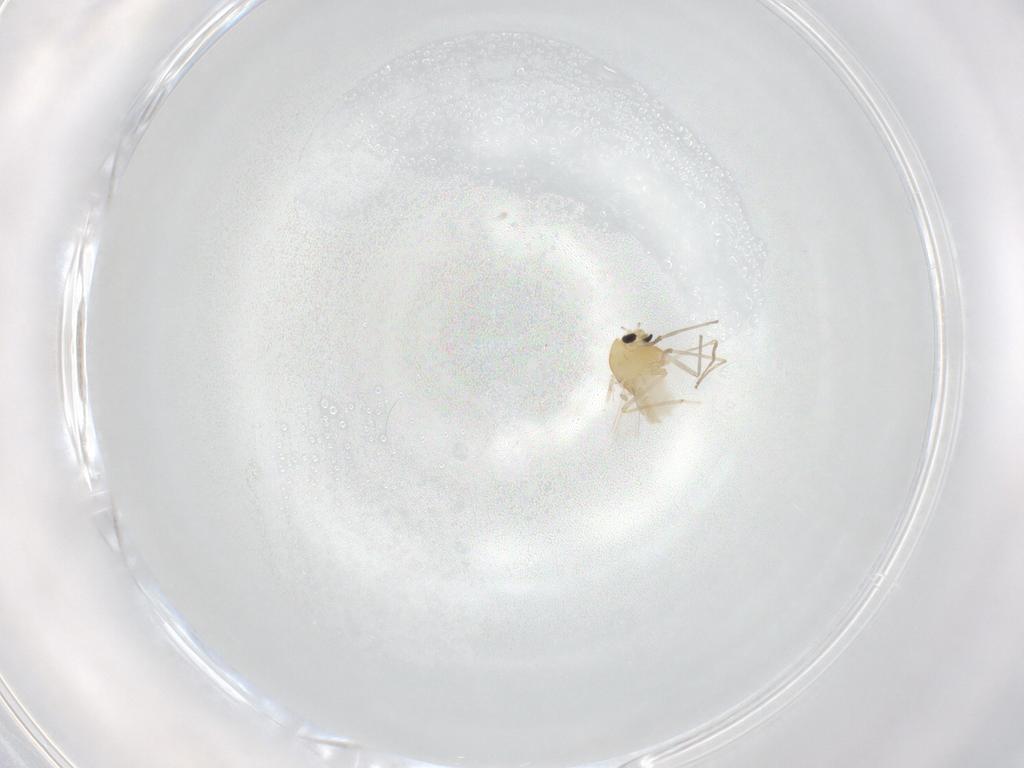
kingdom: Animalia
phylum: Arthropoda
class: Insecta
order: Diptera
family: Chironomidae
